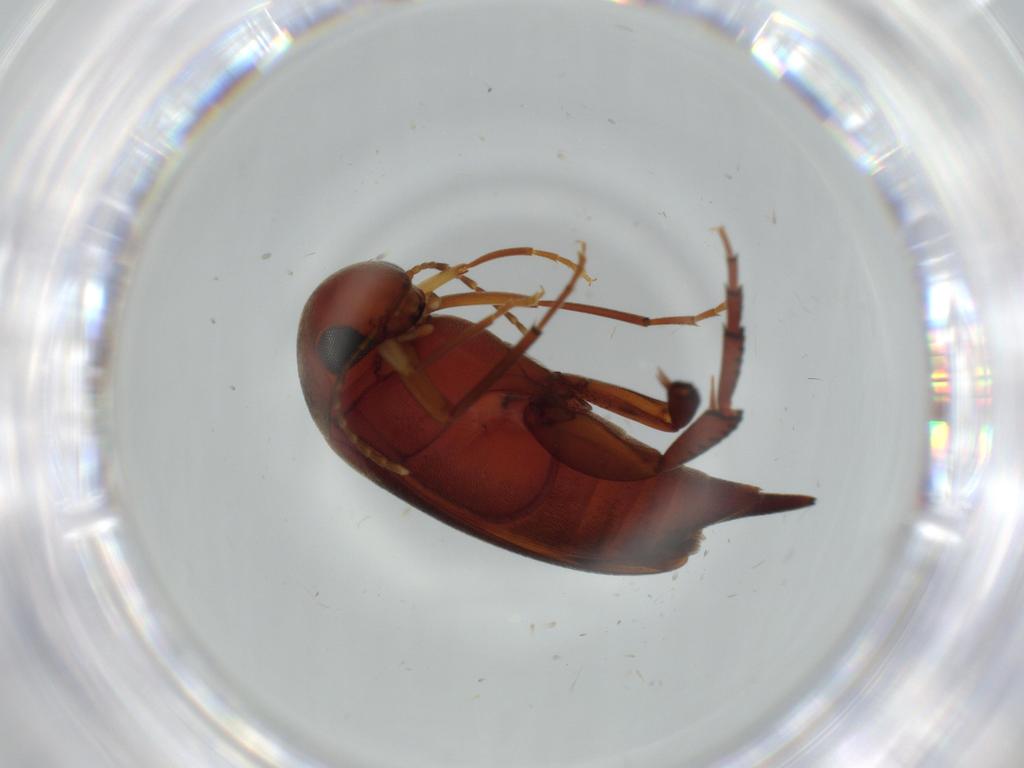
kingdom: Animalia
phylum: Arthropoda
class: Insecta
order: Coleoptera
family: Curculionidae
